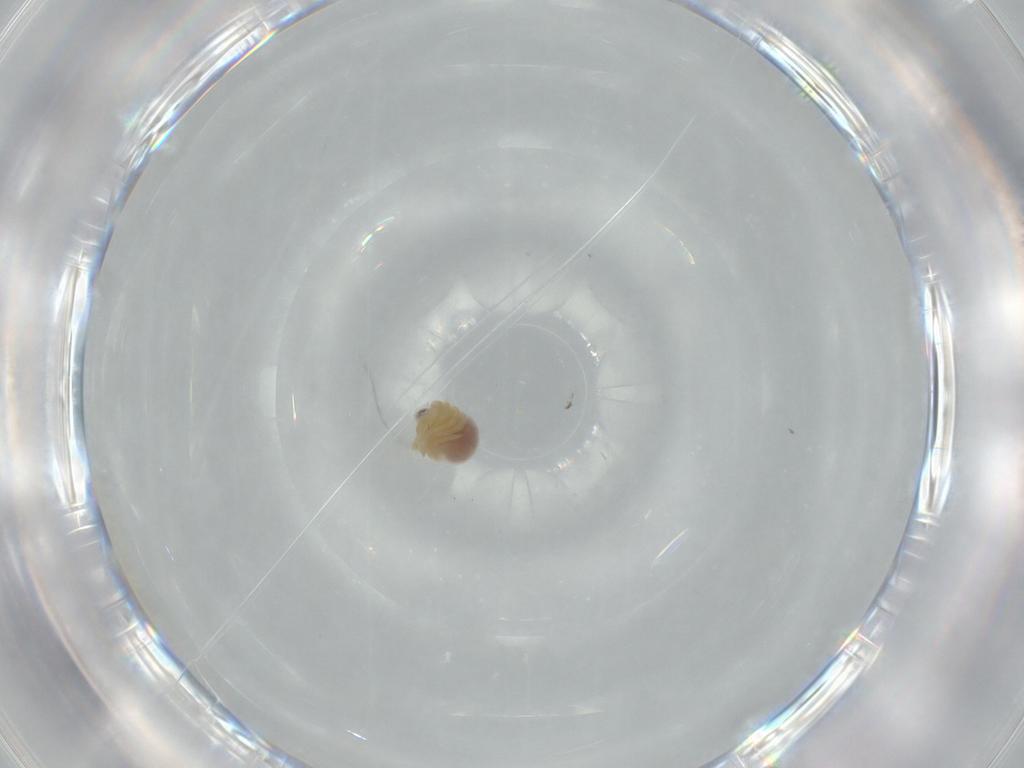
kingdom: Animalia
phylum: Arthropoda
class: Arachnida
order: Araneae
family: Pholcidae
